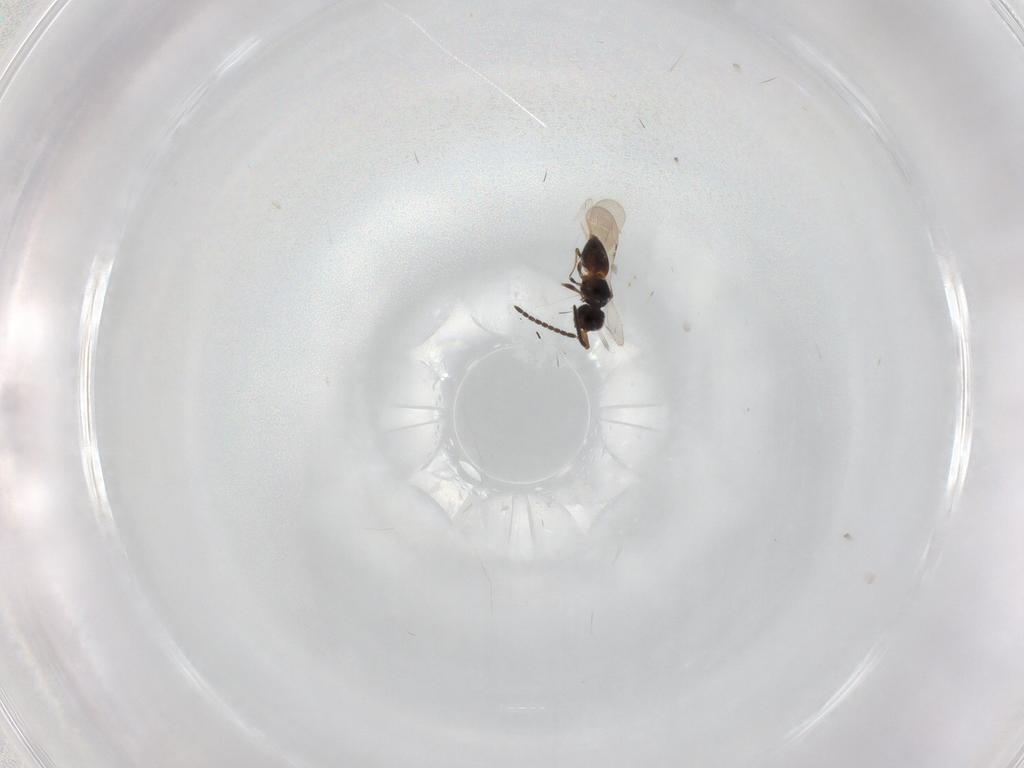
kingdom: Animalia
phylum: Arthropoda
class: Insecta
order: Hymenoptera
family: Ceraphronidae
